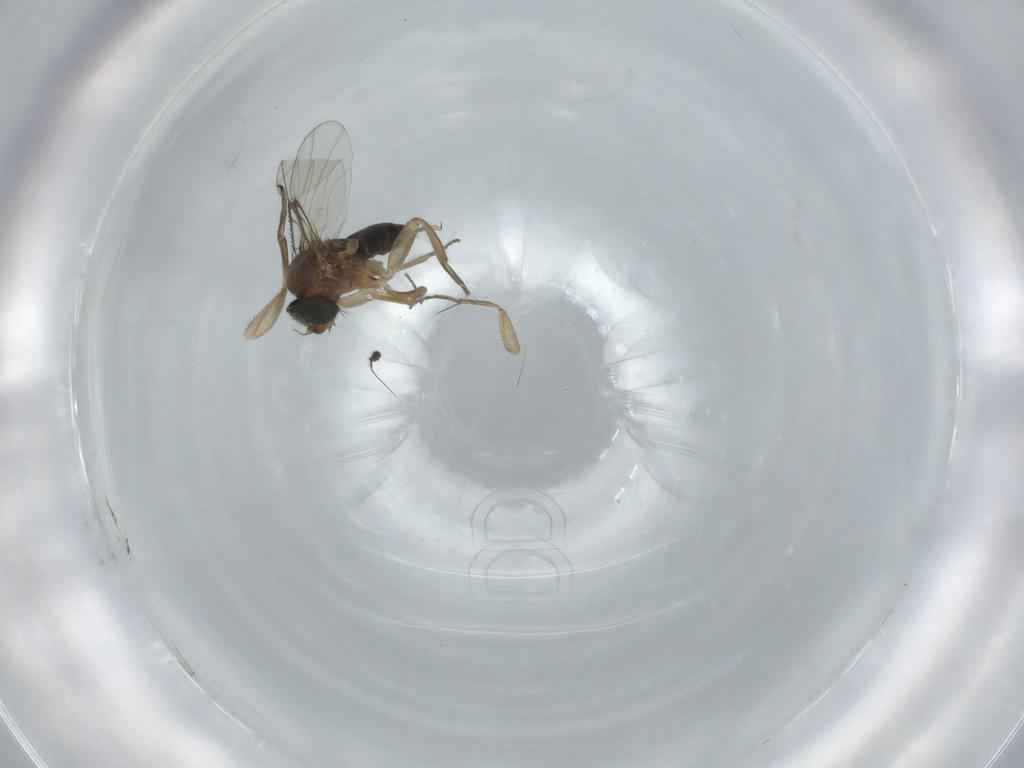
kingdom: Animalia
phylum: Arthropoda
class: Insecta
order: Diptera
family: Phoridae
